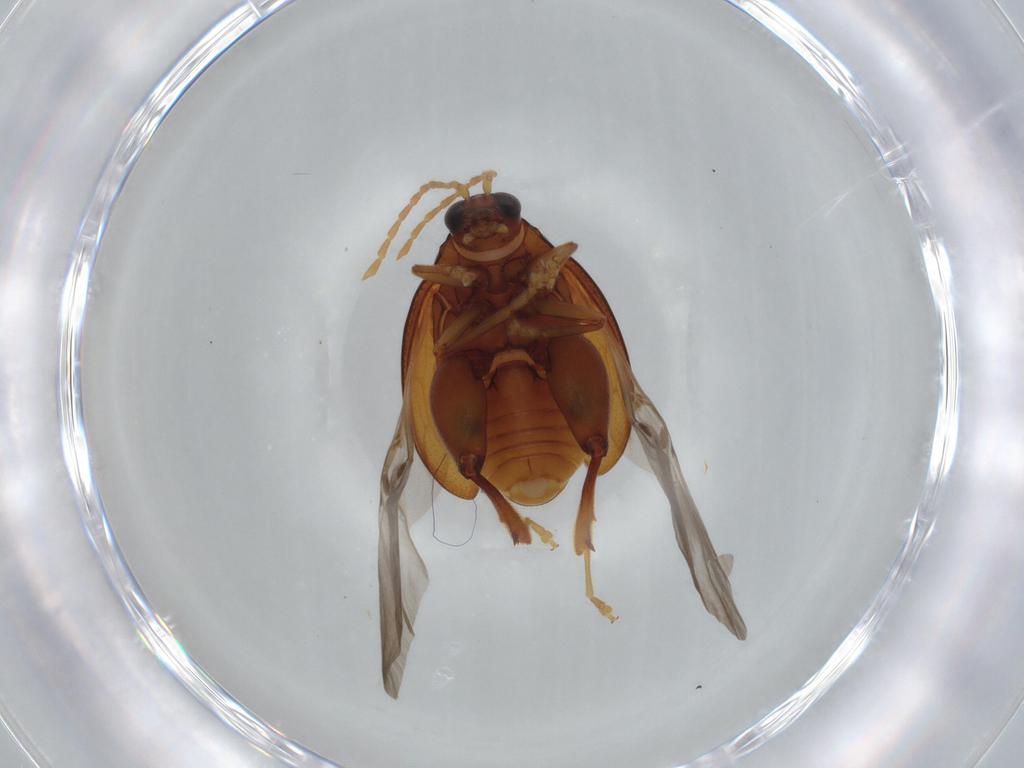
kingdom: Animalia
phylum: Arthropoda
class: Insecta
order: Coleoptera
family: Chrysomelidae
